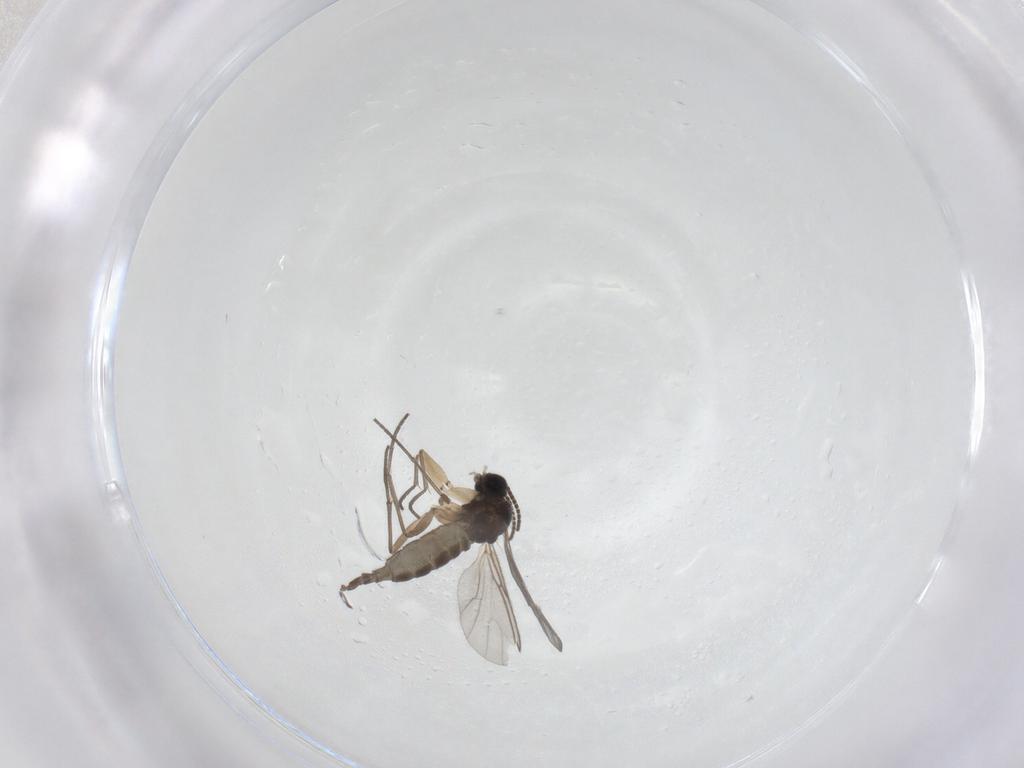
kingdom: Animalia
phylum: Arthropoda
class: Insecta
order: Diptera
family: Sciaridae
